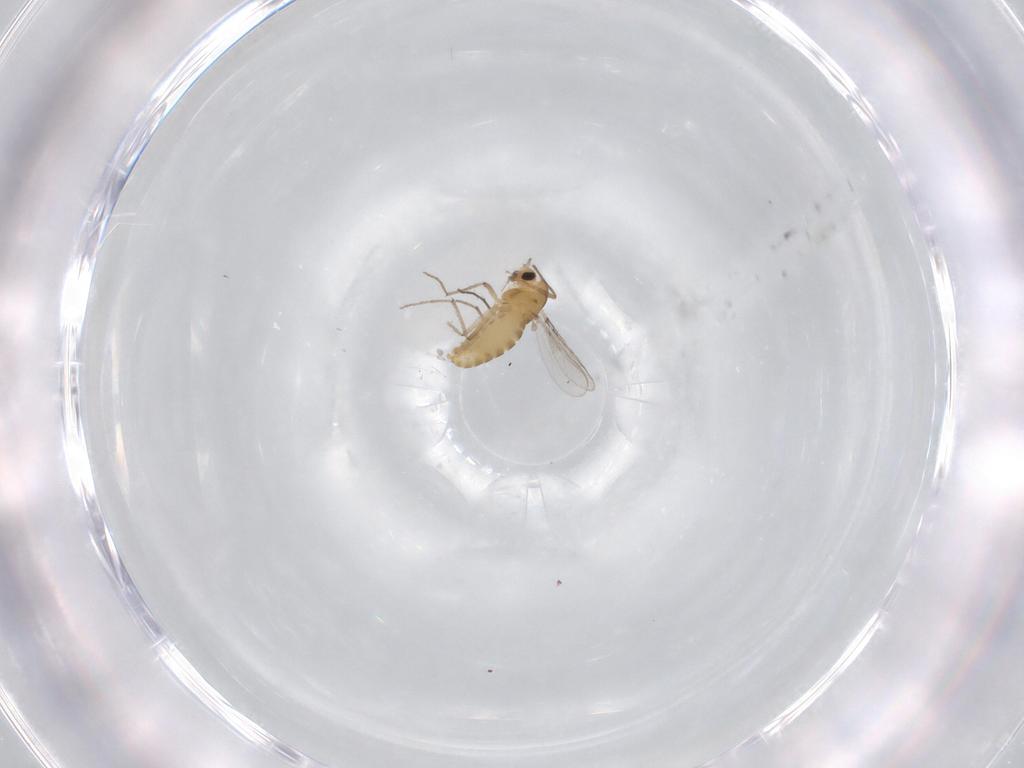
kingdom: Animalia
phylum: Arthropoda
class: Insecta
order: Diptera
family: Chironomidae
